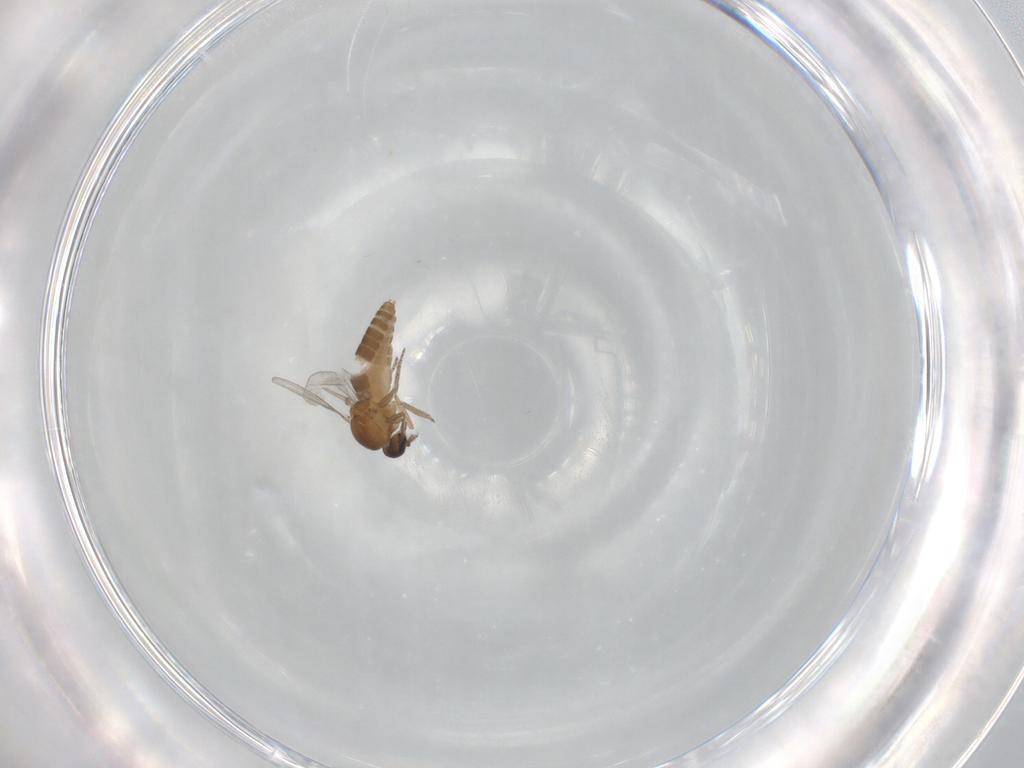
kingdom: Animalia
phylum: Arthropoda
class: Insecta
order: Diptera
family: Ceratopogonidae
